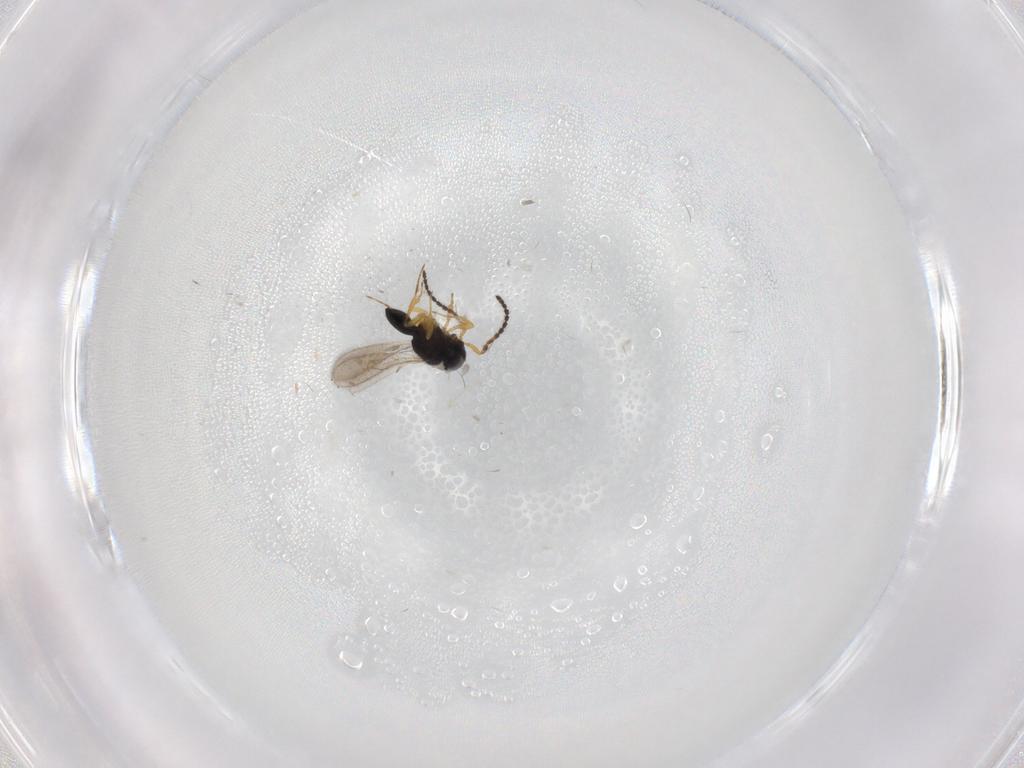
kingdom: Animalia
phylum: Arthropoda
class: Insecta
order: Hymenoptera
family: Scelionidae
